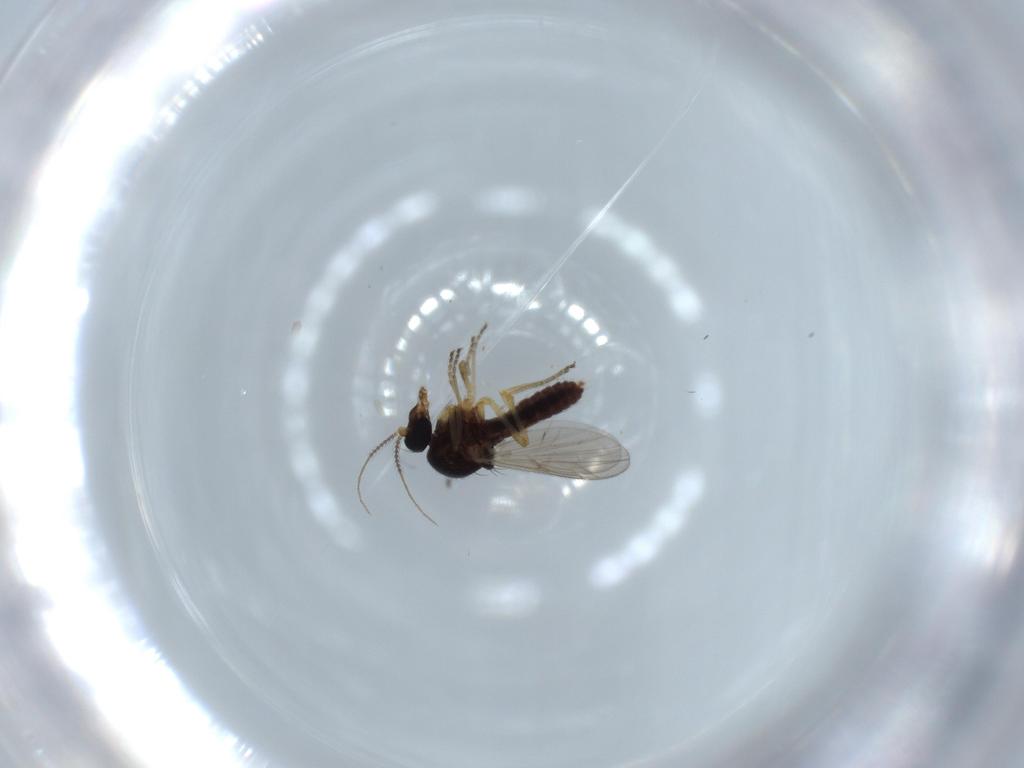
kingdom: Animalia
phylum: Arthropoda
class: Insecta
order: Diptera
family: Ceratopogonidae
